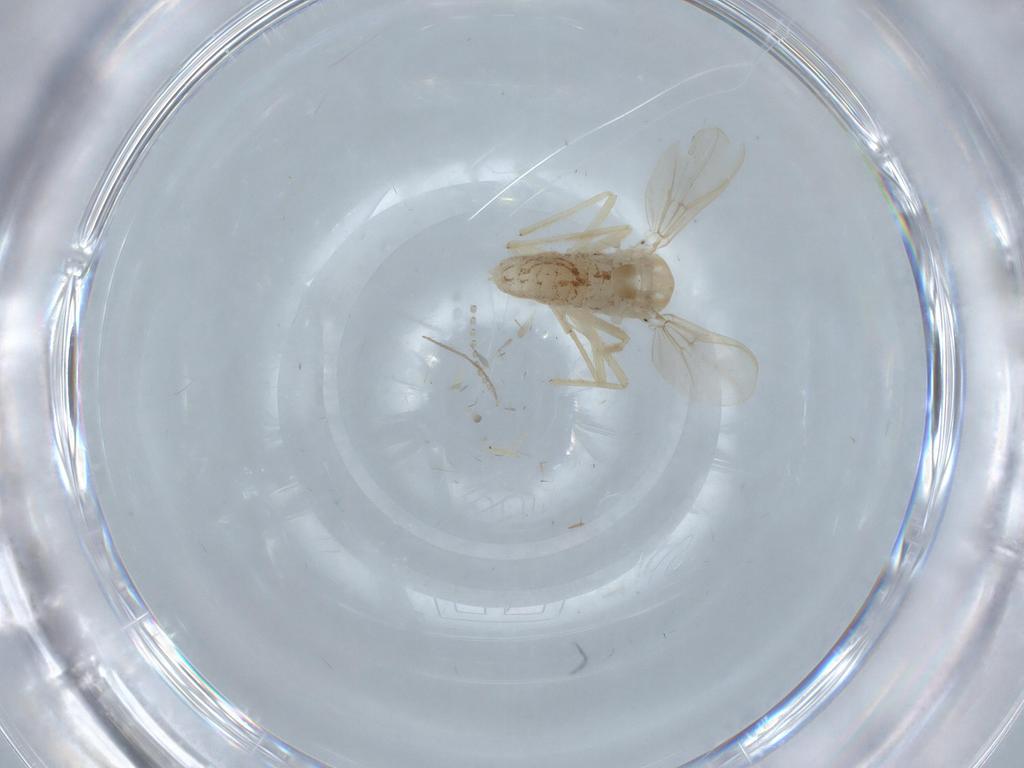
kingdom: Animalia
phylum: Arthropoda
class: Insecta
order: Diptera
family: Chironomidae
